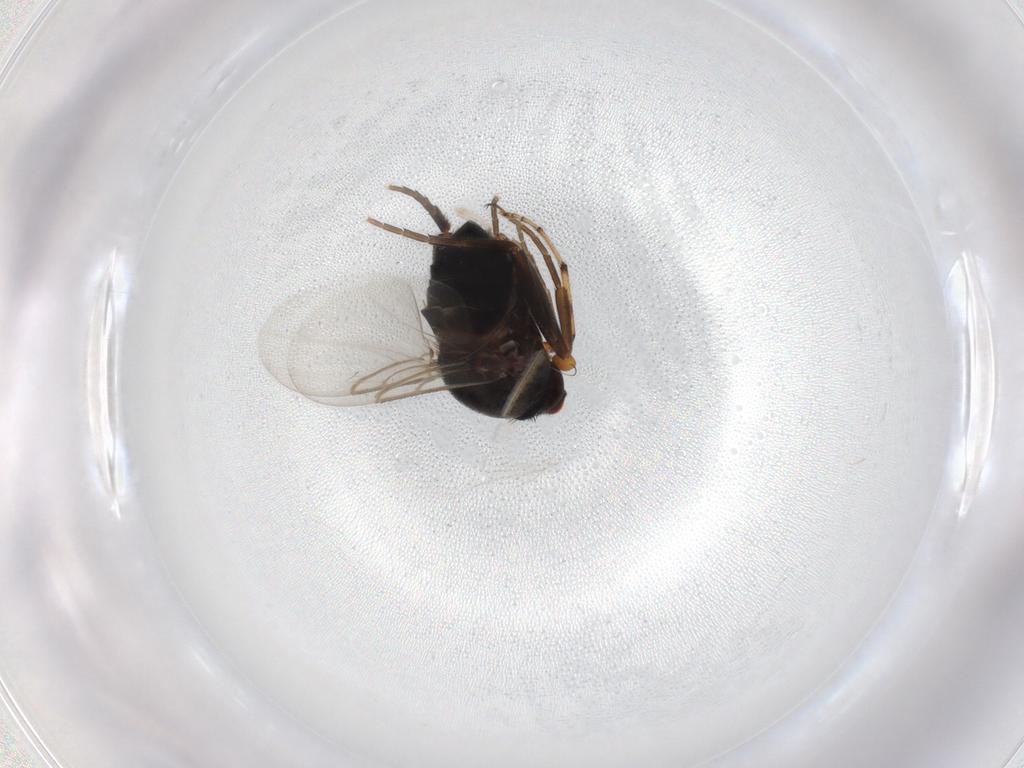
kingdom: Animalia
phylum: Arthropoda
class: Insecta
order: Diptera
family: Phoridae
